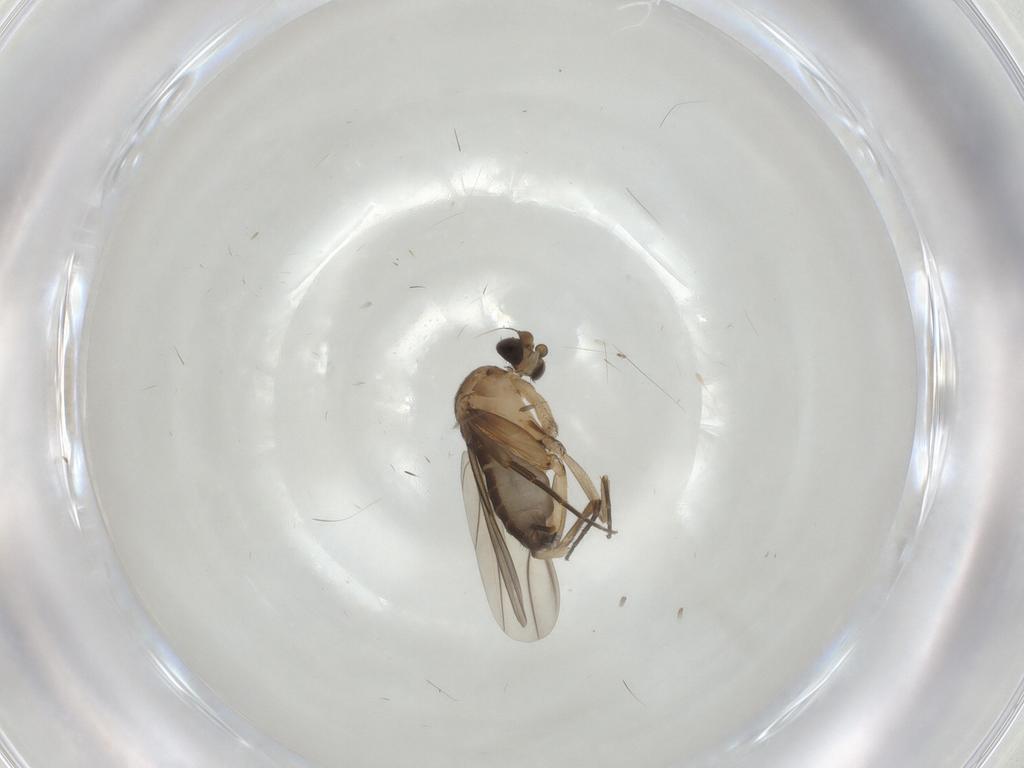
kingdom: Animalia
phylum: Arthropoda
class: Insecta
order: Diptera
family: Phoridae
